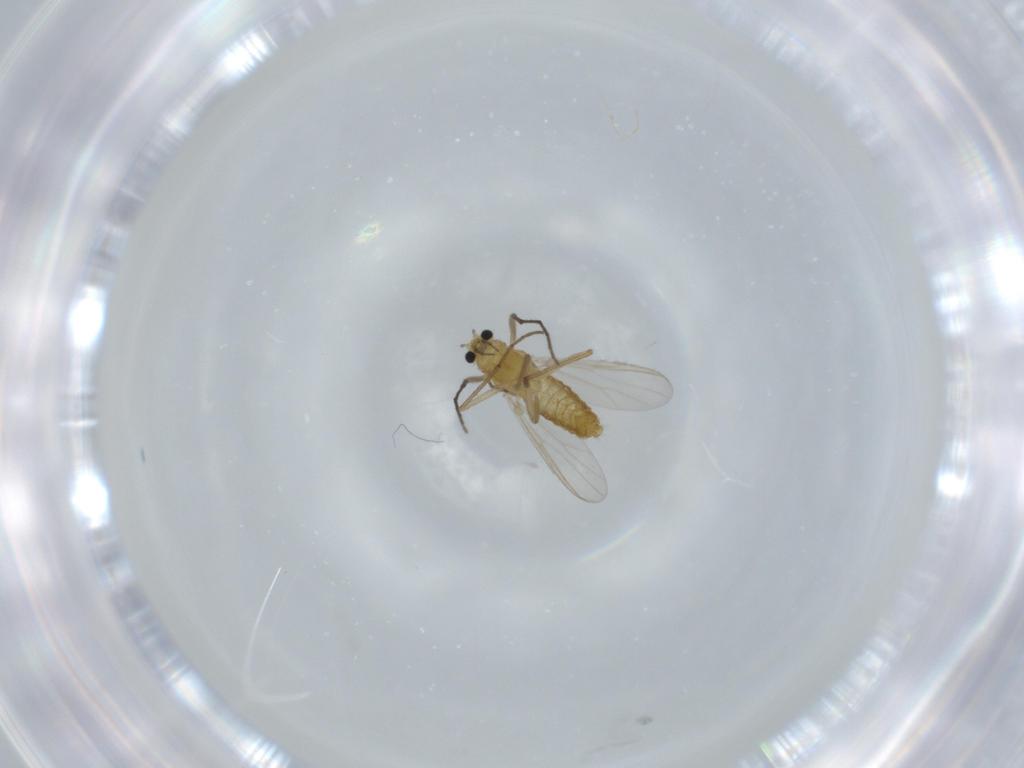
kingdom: Animalia
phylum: Arthropoda
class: Insecta
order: Diptera
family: Chironomidae
